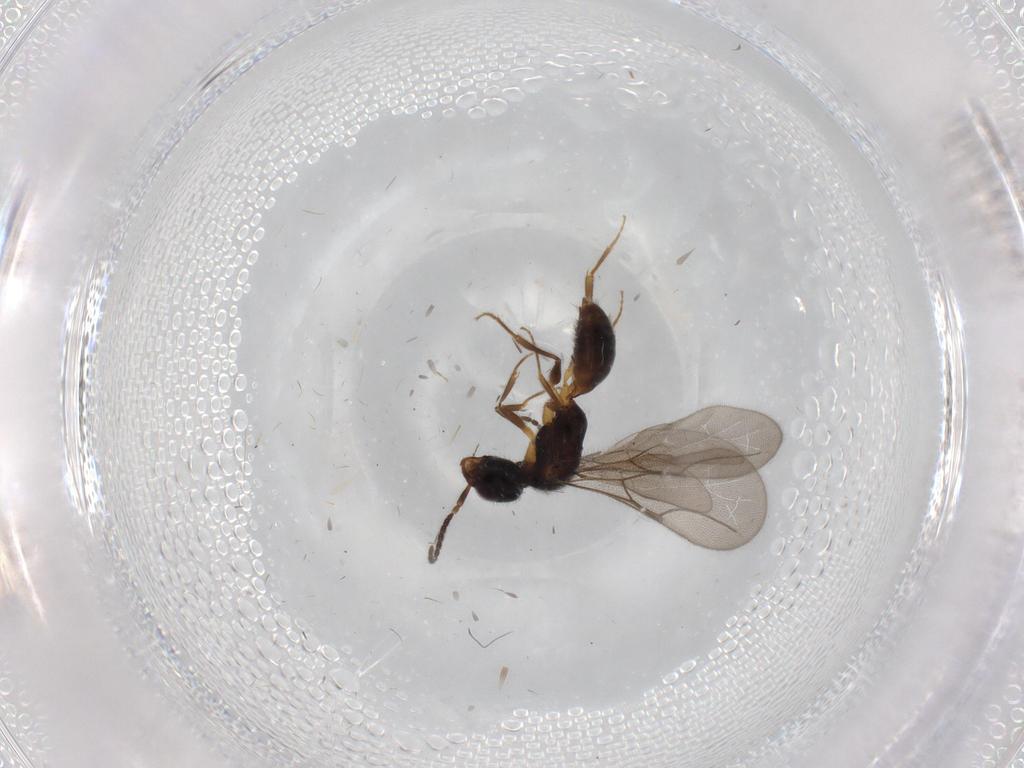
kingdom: Animalia
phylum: Arthropoda
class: Insecta
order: Hymenoptera
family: Bethylidae
